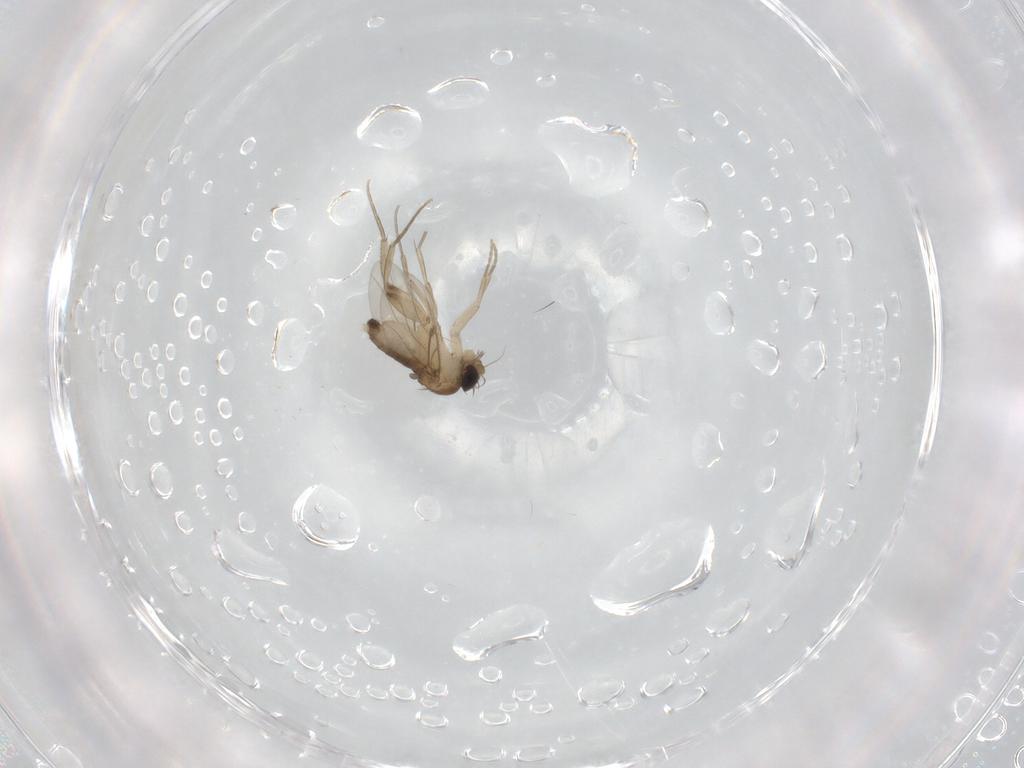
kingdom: Animalia
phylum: Arthropoda
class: Insecta
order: Diptera
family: Phoridae
